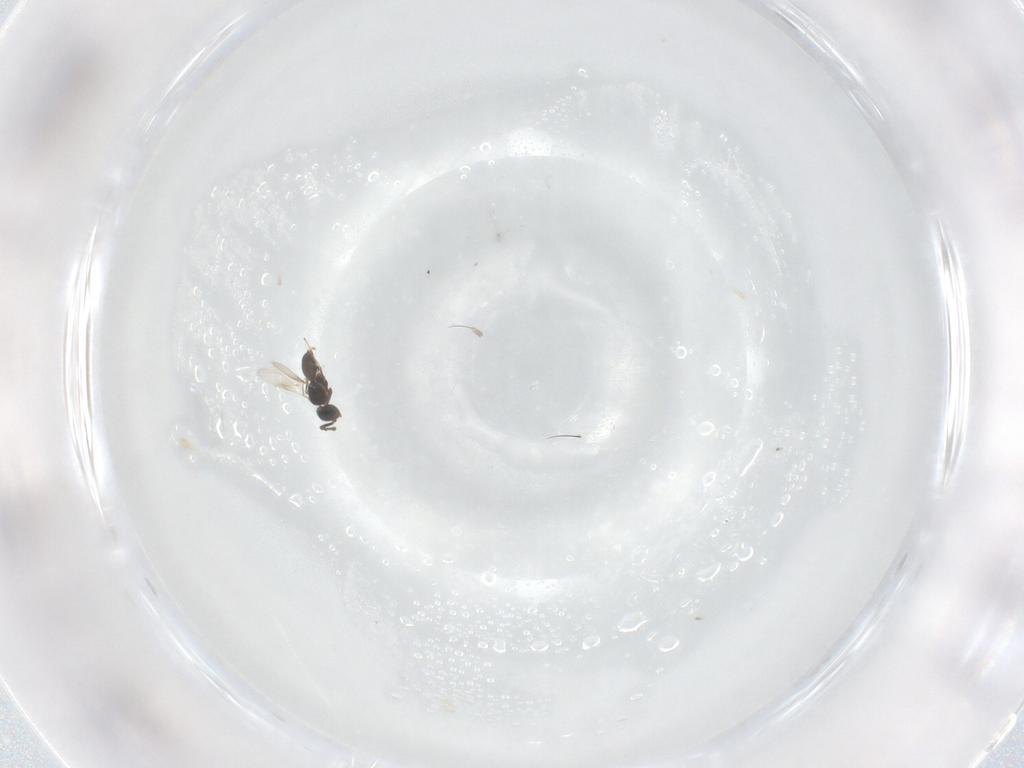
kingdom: Animalia
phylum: Arthropoda
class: Insecta
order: Hymenoptera
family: Scelionidae
